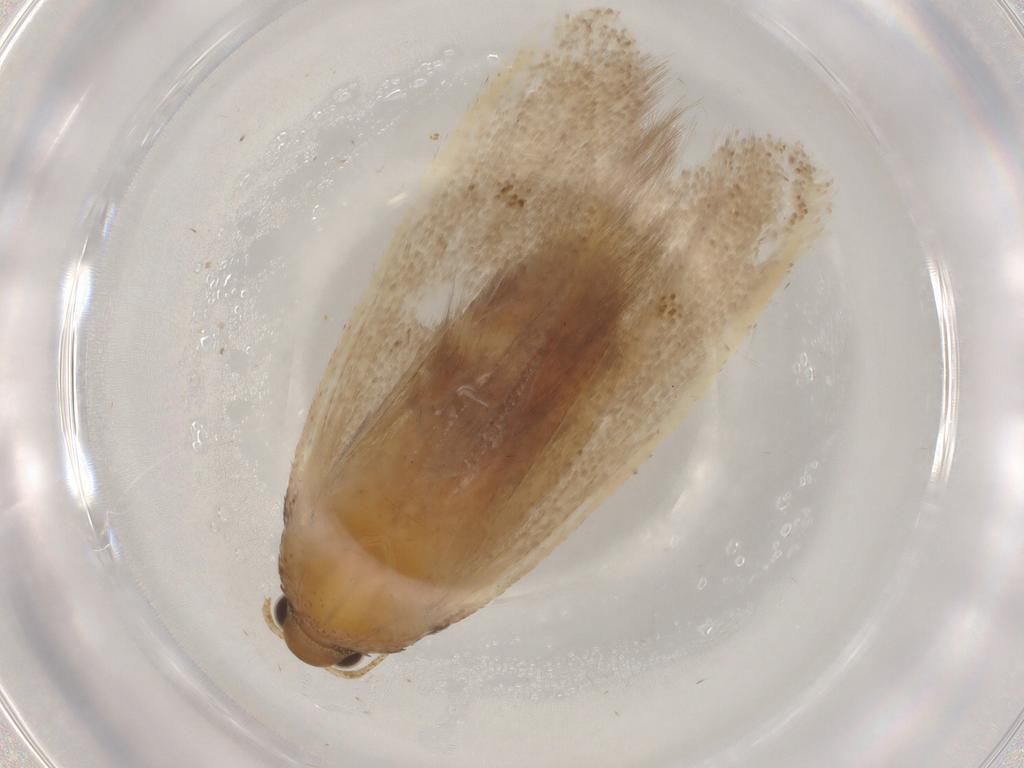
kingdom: Animalia
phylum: Arthropoda
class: Insecta
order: Lepidoptera
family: Autostichidae
